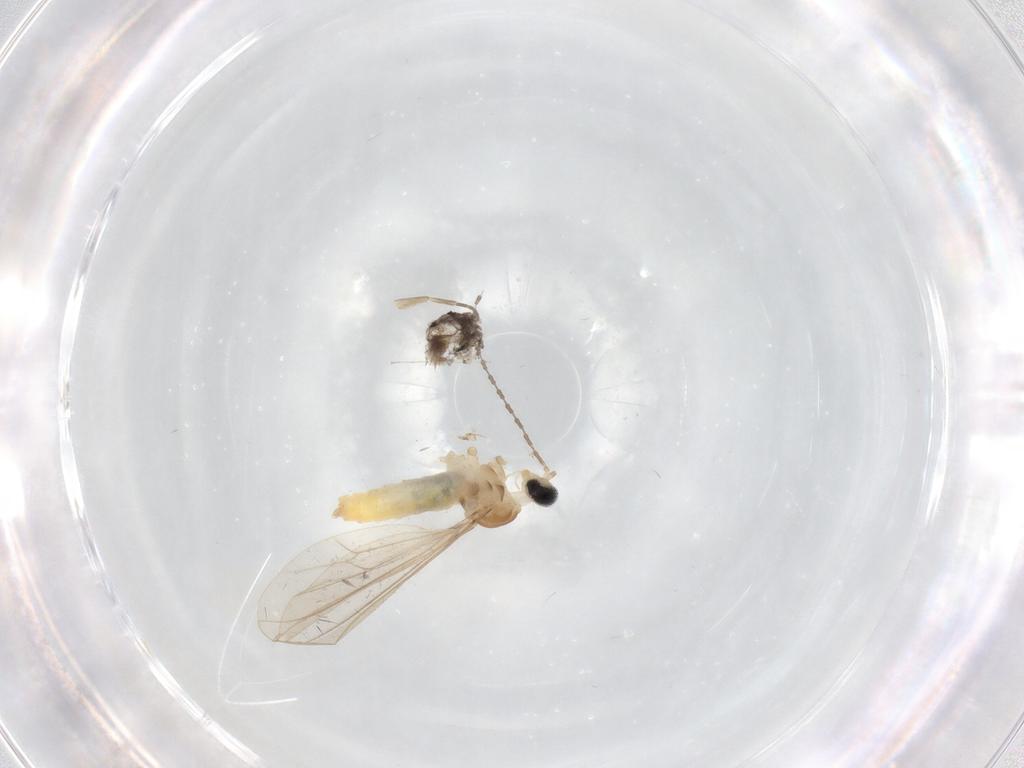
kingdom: Animalia
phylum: Arthropoda
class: Insecta
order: Diptera
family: Cecidomyiidae
